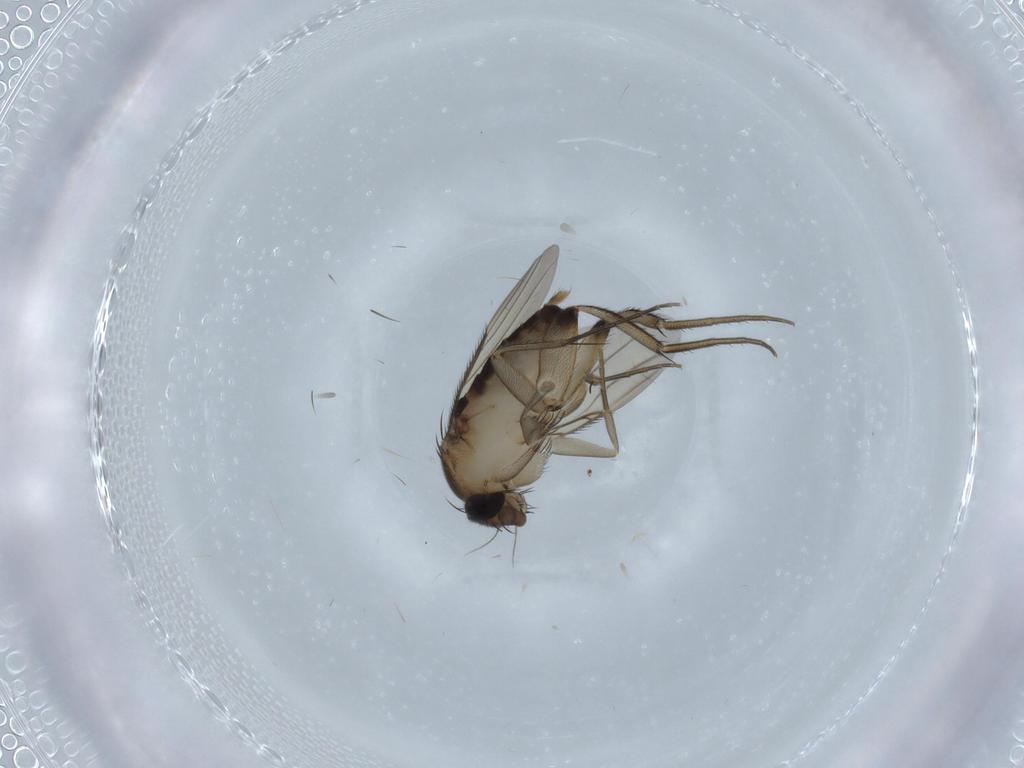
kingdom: Animalia
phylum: Arthropoda
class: Insecta
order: Diptera
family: Phoridae
